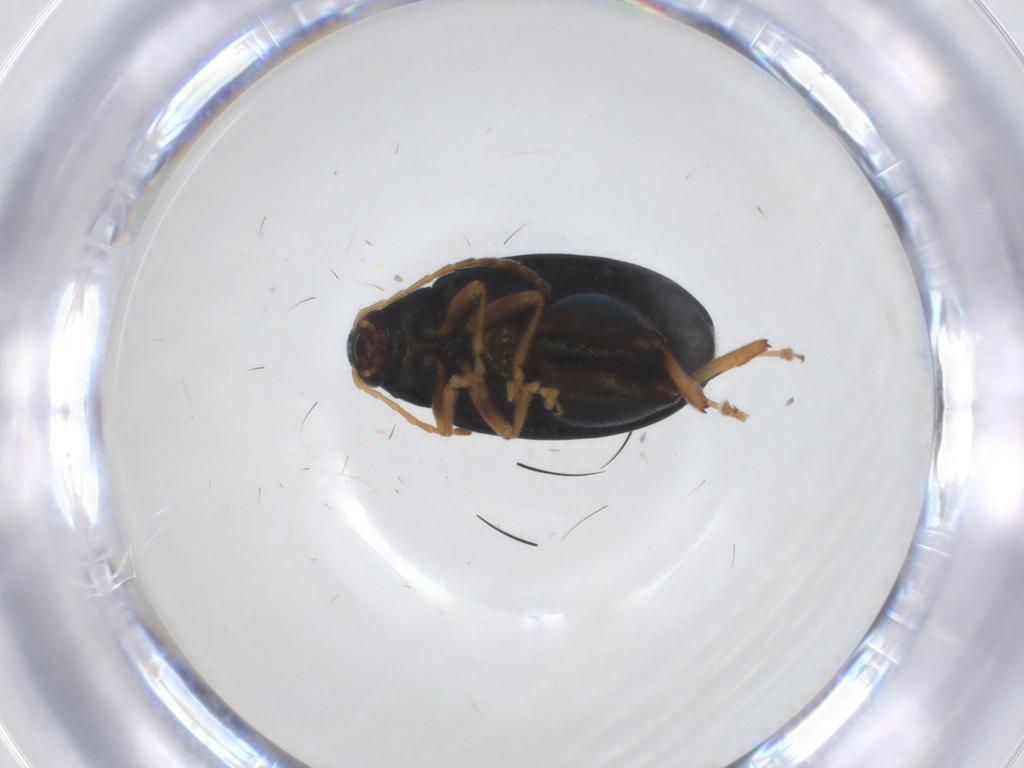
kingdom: Animalia
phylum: Arthropoda
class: Insecta
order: Coleoptera
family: Chrysomelidae
